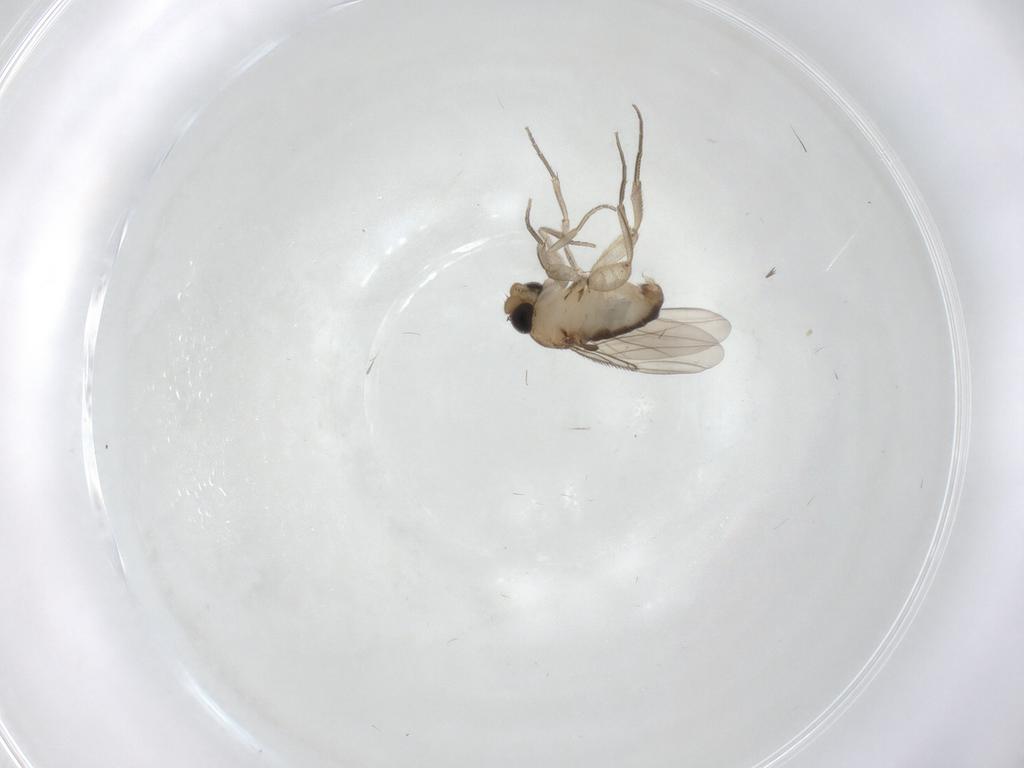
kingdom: Animalia
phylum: Arthropoda
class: Insecta
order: Diptera
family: Phoridae
